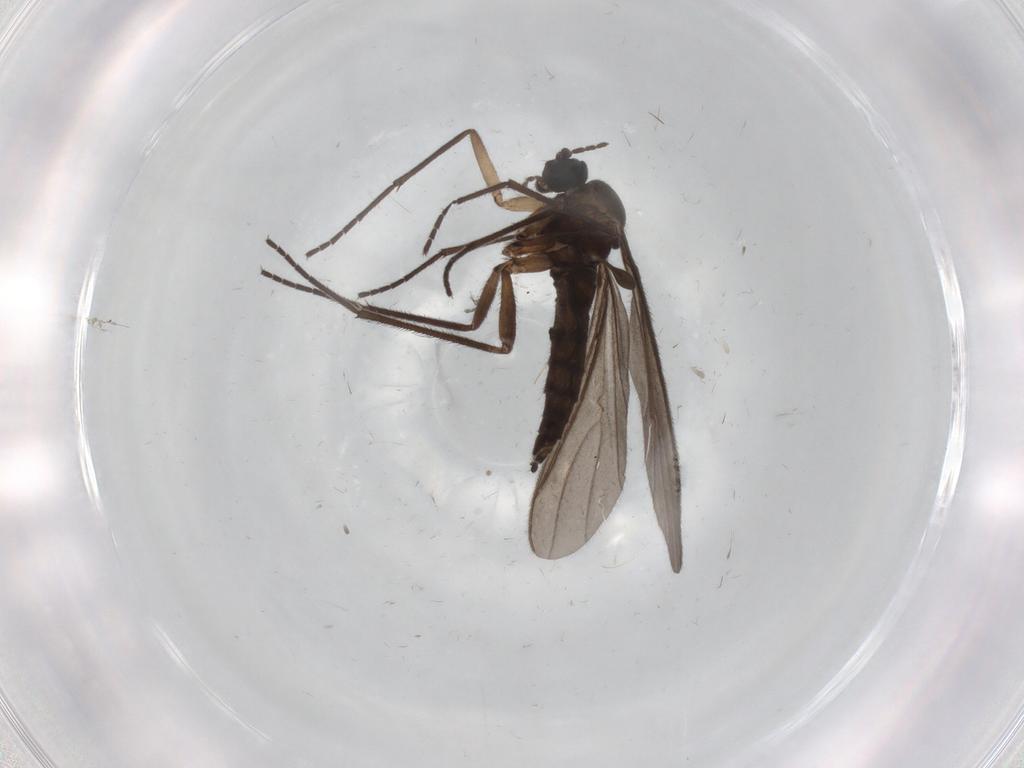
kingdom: Animalia
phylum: Arthropoda
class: Insecta
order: Diptera
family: Sciaridae
